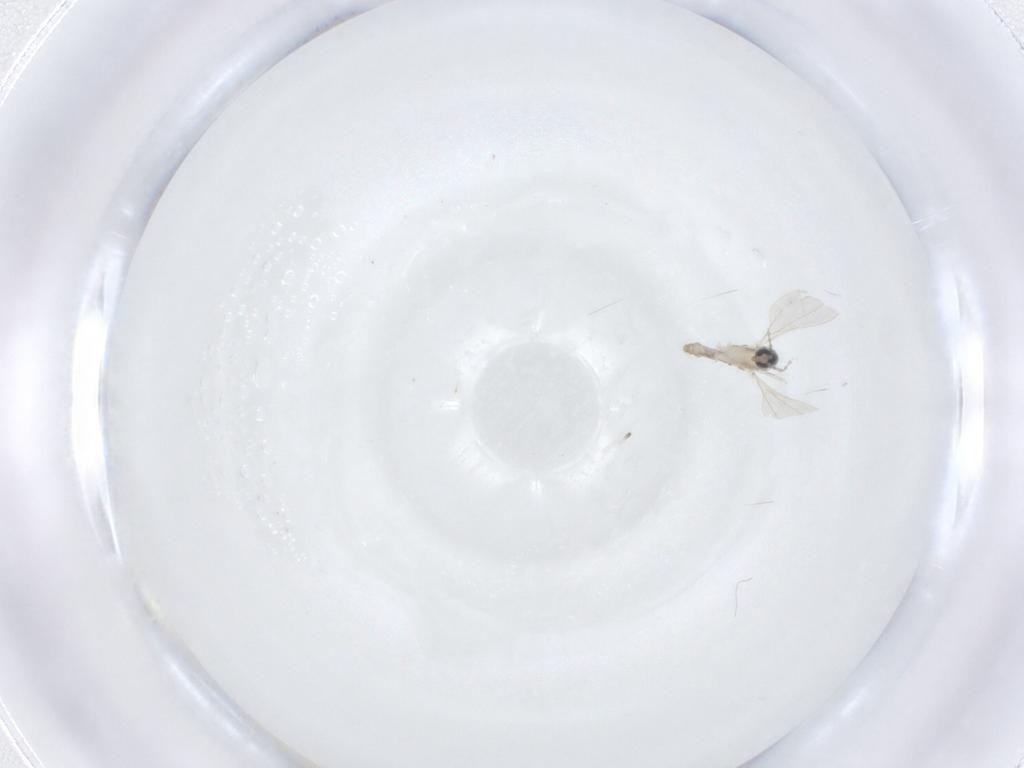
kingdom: Animalia
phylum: Arthropoda
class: Insecta
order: Diptera
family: Cecidomyiidae
